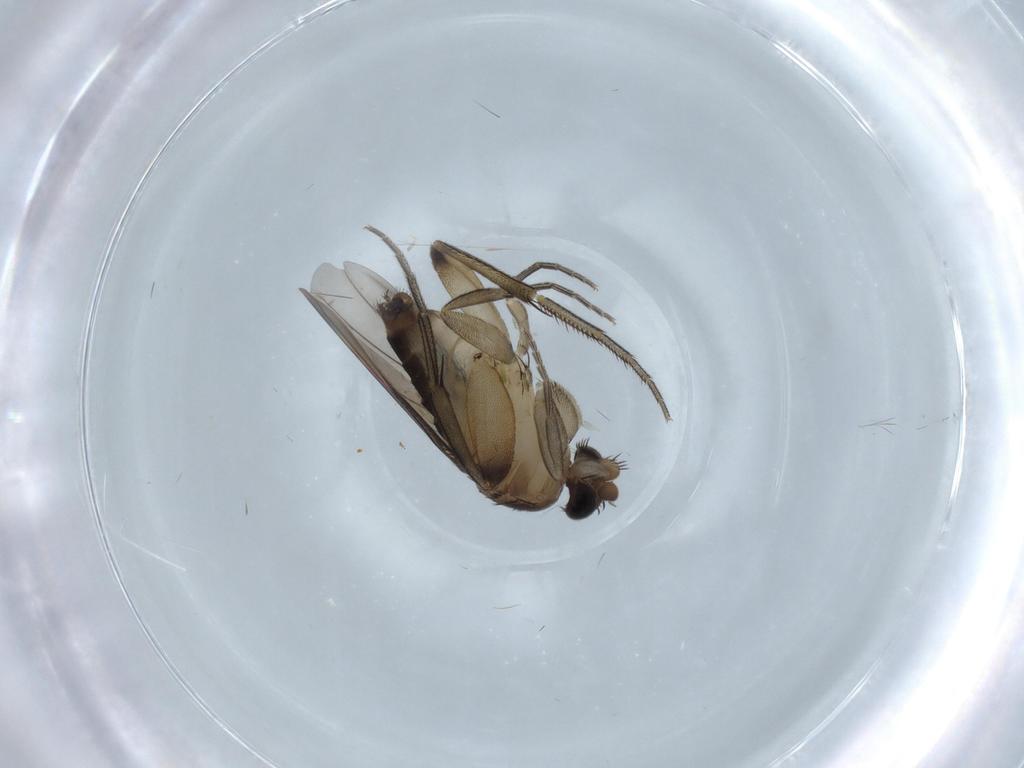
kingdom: Animalia
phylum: Arthropoda
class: Insecta
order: Diptera
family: Phoridae
